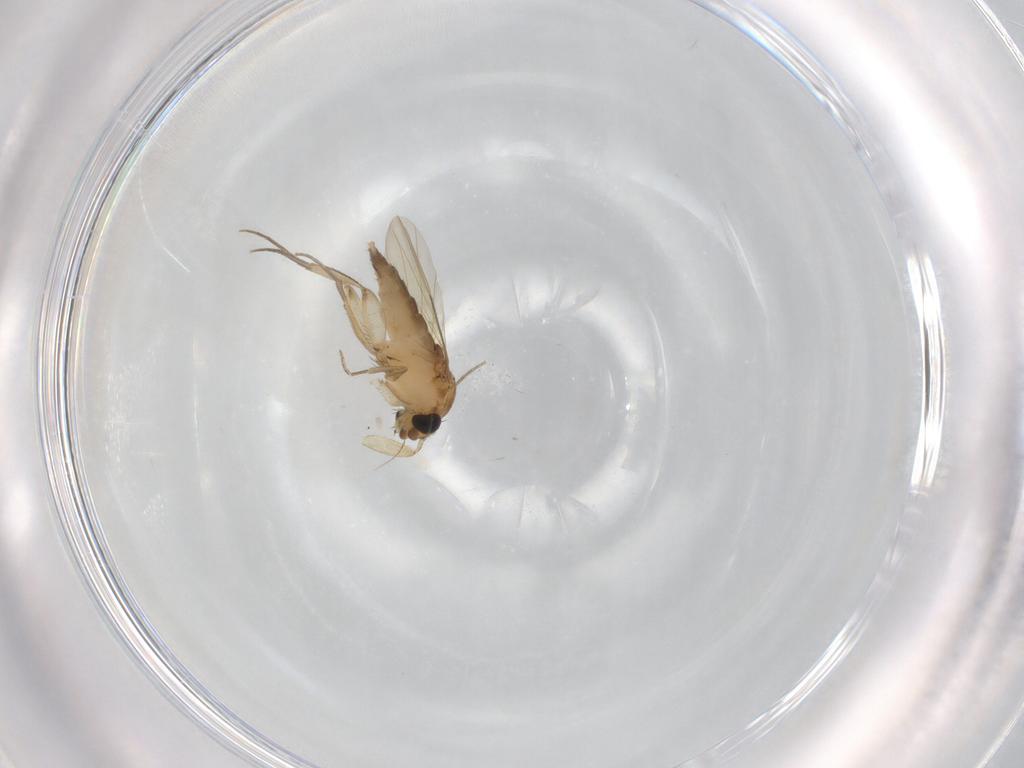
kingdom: Animalia
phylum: Arthropoda
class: Insecta
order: Diptera
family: Phoridae
